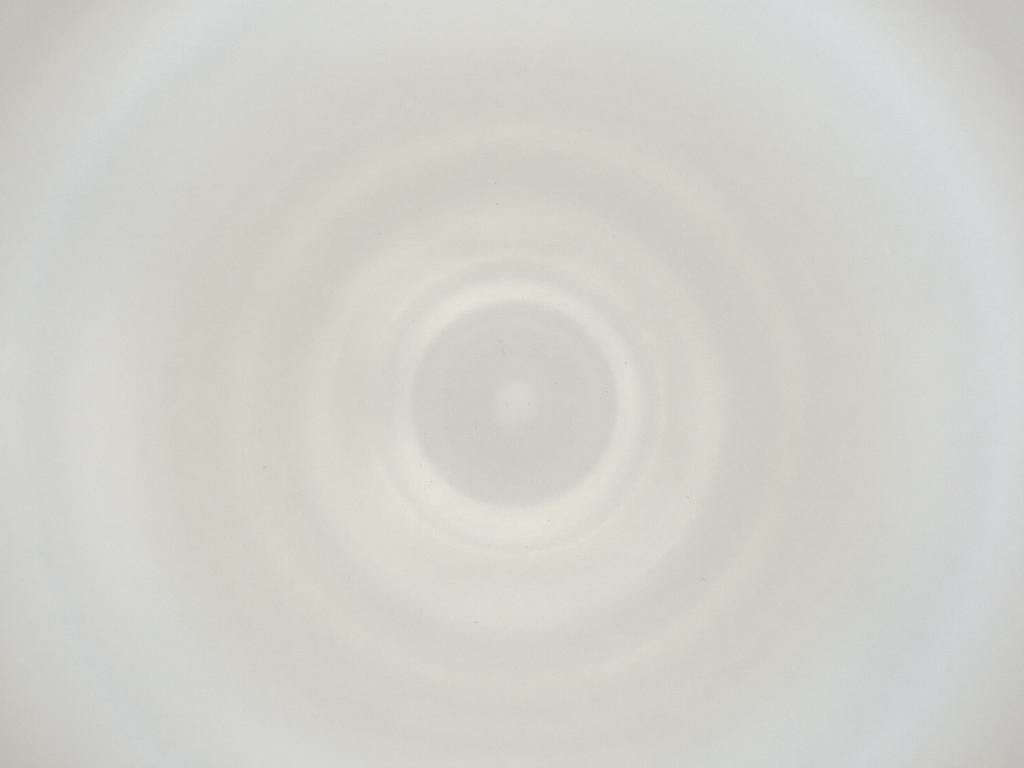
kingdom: Animalia
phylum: Arthropoda
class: Insecta
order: Diptera
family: Cecidomyiidae
